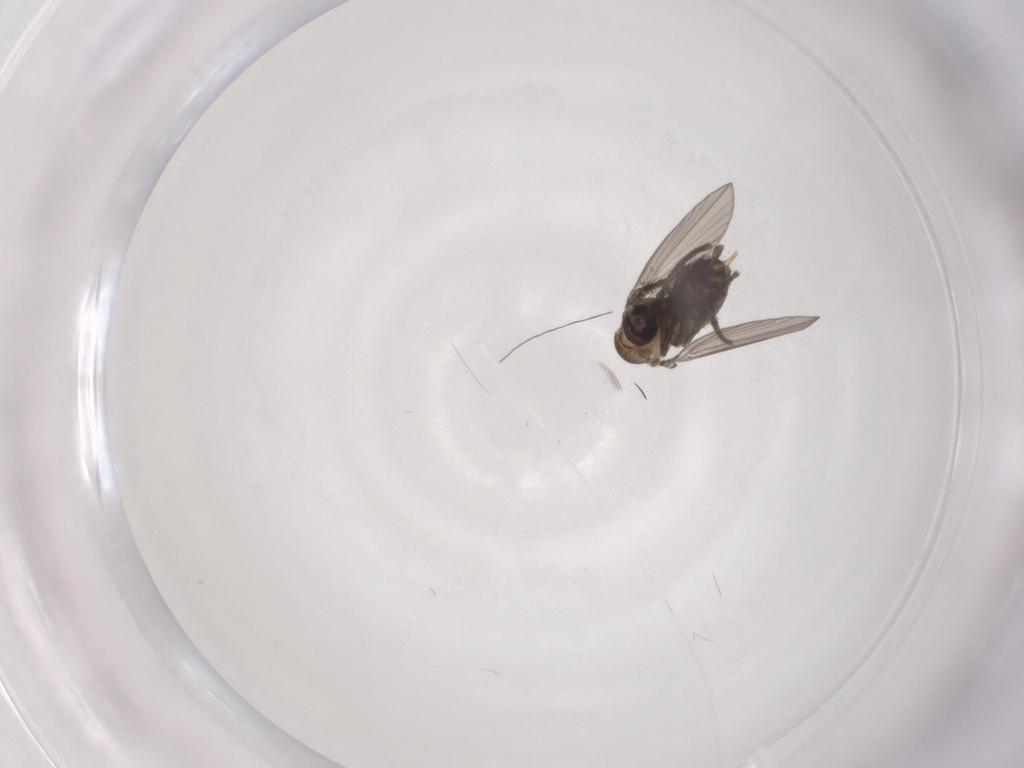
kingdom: Animalia
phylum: Arthropoda
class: Insecta
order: Diptera
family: Psychodidae
